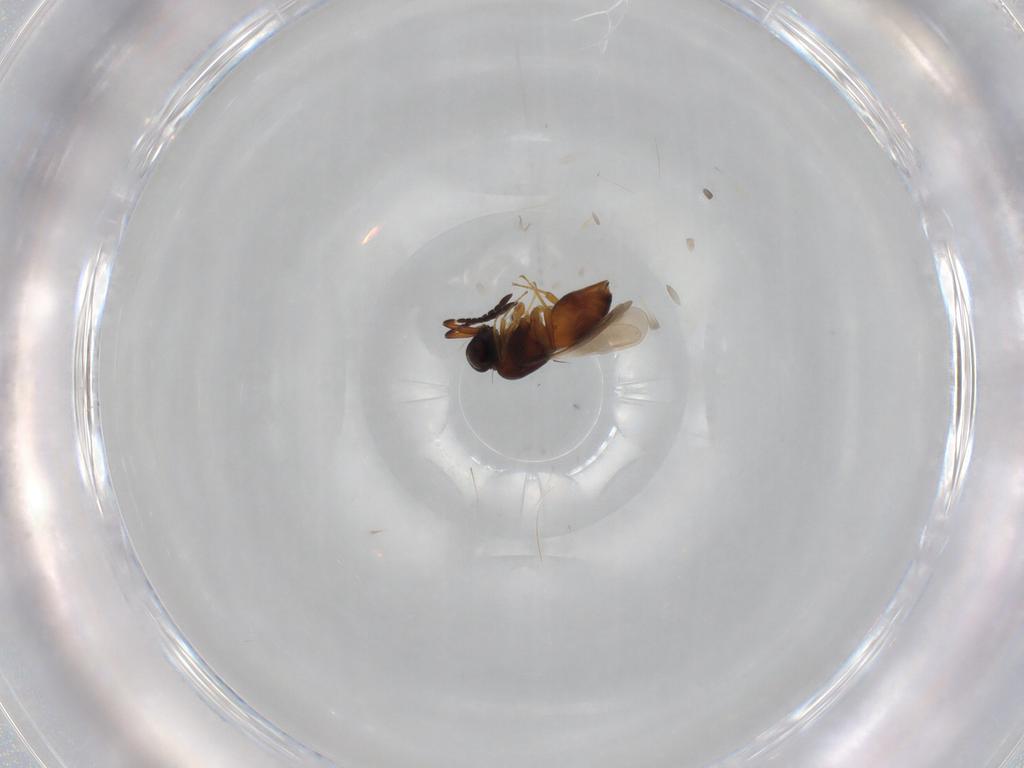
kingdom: Animalia
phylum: Arthropoda
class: Insecta
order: Hymenoptera
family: Ceraphronidae
